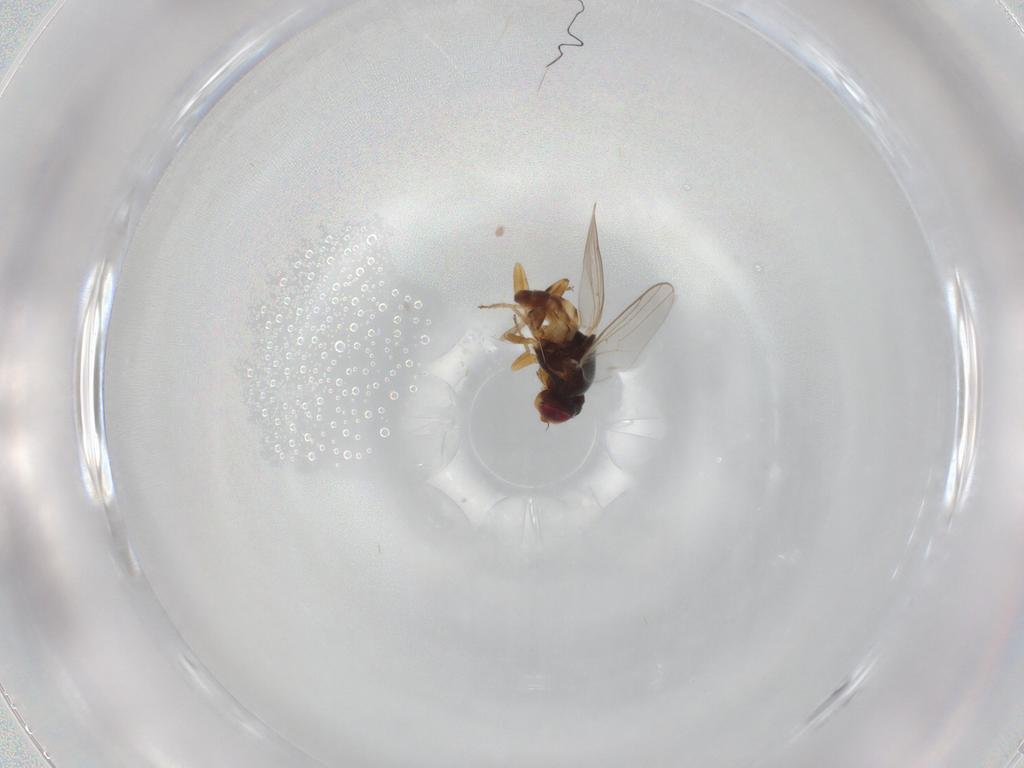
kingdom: Animalia
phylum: Arthropoda
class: Insecta
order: Diptera
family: Chloropidae
